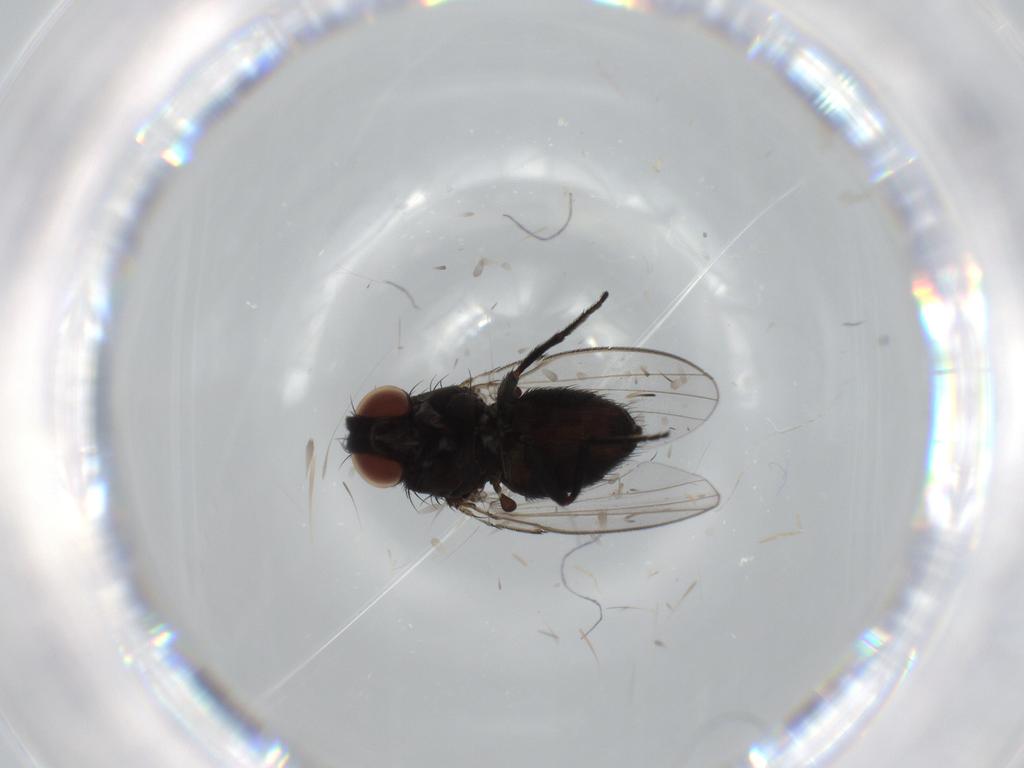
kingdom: Animalia
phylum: Arthropoda
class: Insecta
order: Diptera
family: Milichiidae
